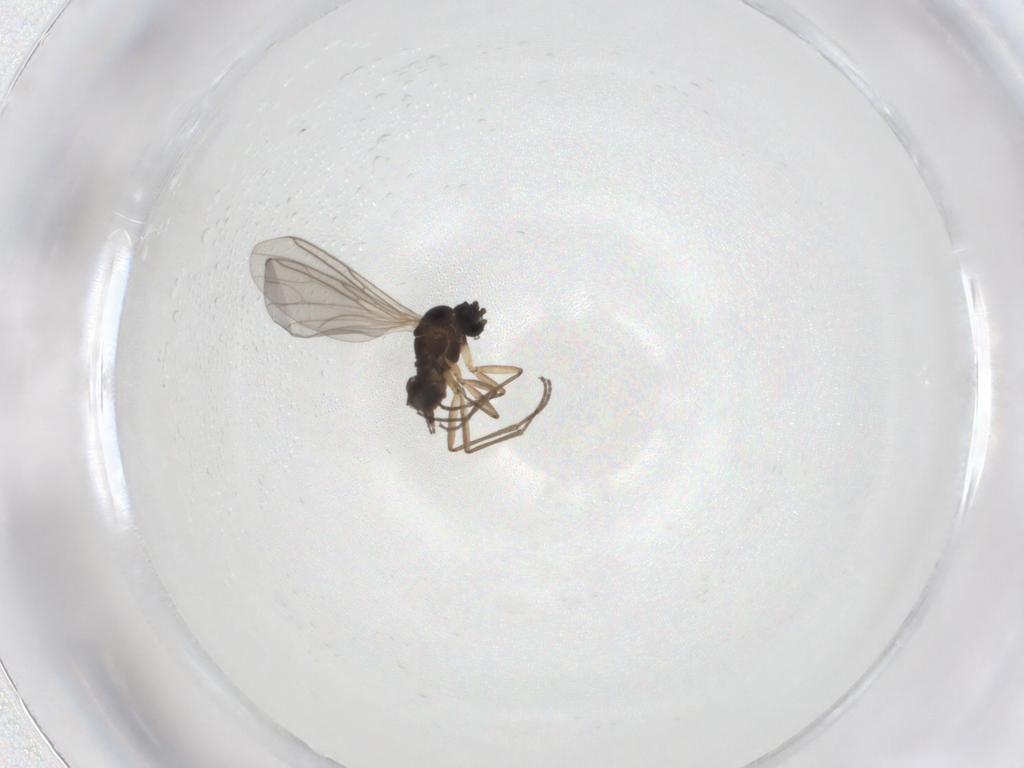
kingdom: Animalia
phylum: Arthropoda
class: Insecta
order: Diptera
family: Sciaridae
